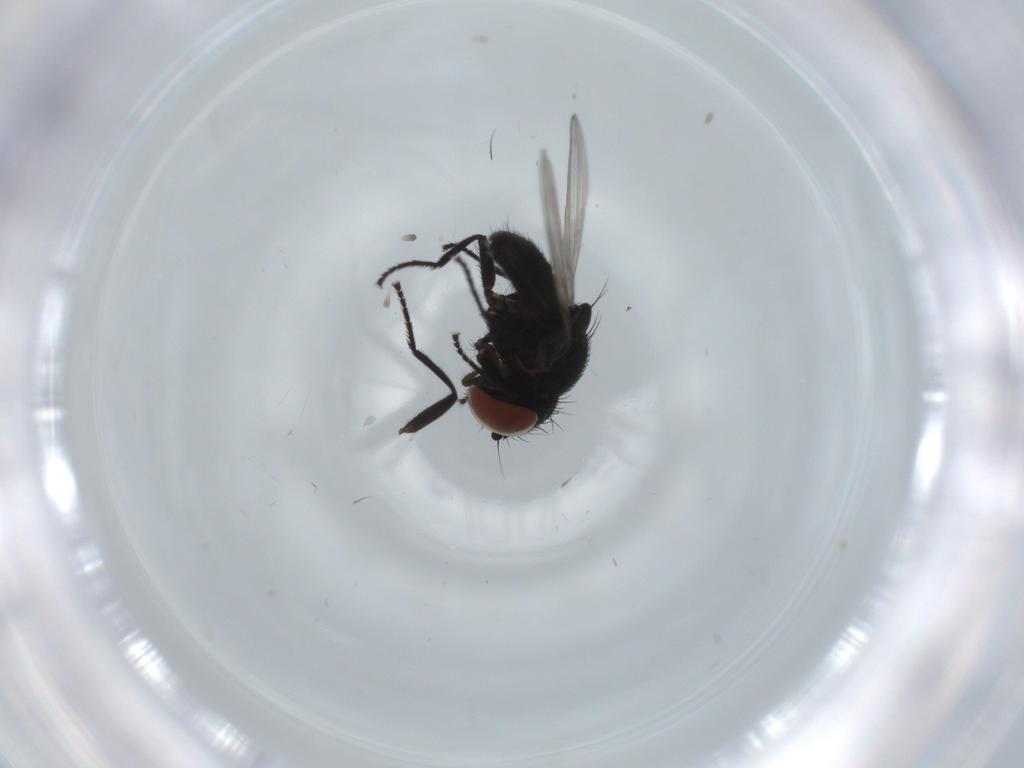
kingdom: Animalia
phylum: Arthropoda
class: Insecta
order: Diptera
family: Milichiidae
